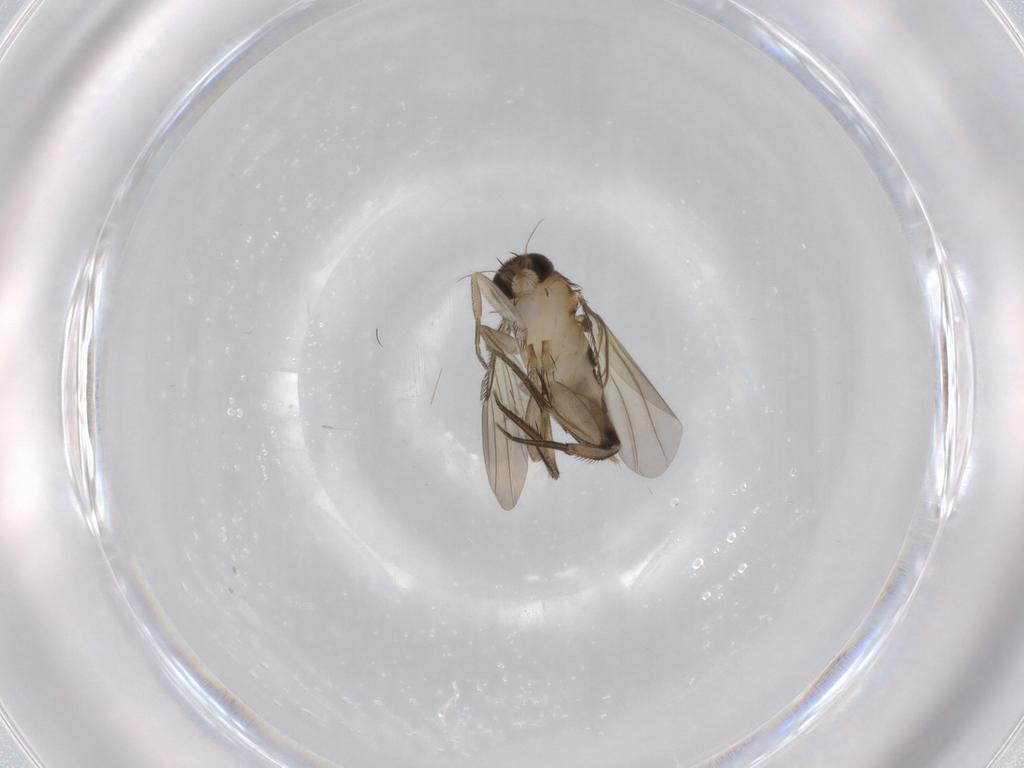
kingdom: Animalia
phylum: Arthropoda
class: Insecta
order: Diptera
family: Phoridae
